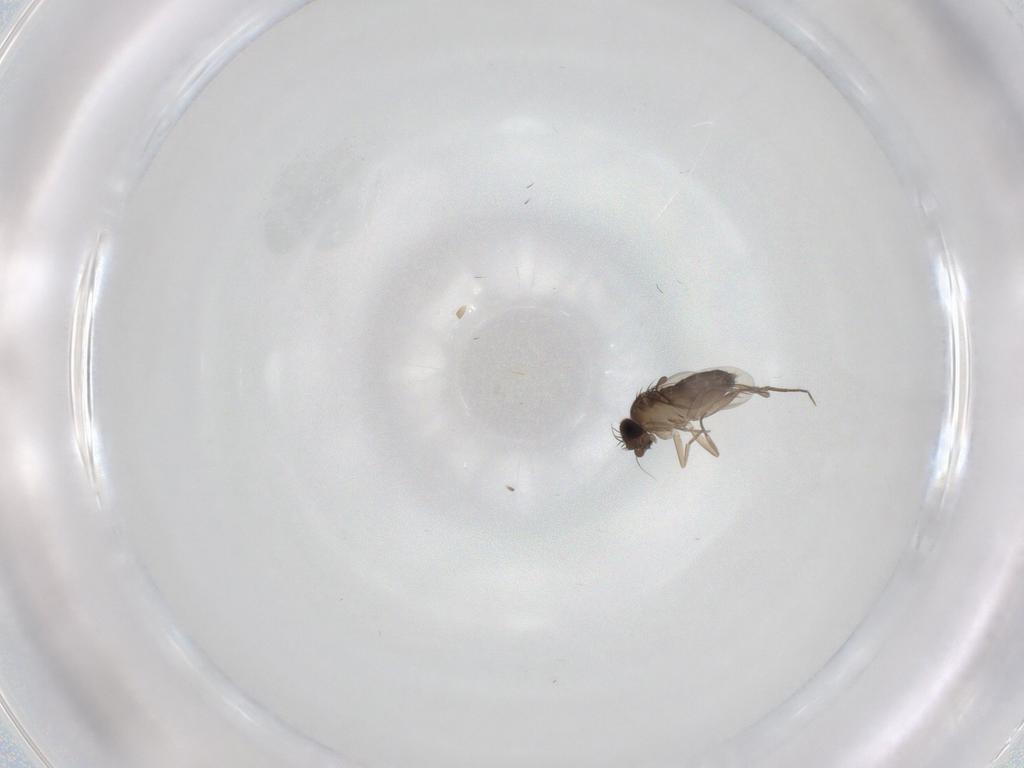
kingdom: Animalia
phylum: Arthropoda
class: Insecta
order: Diptera
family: Phoridae
